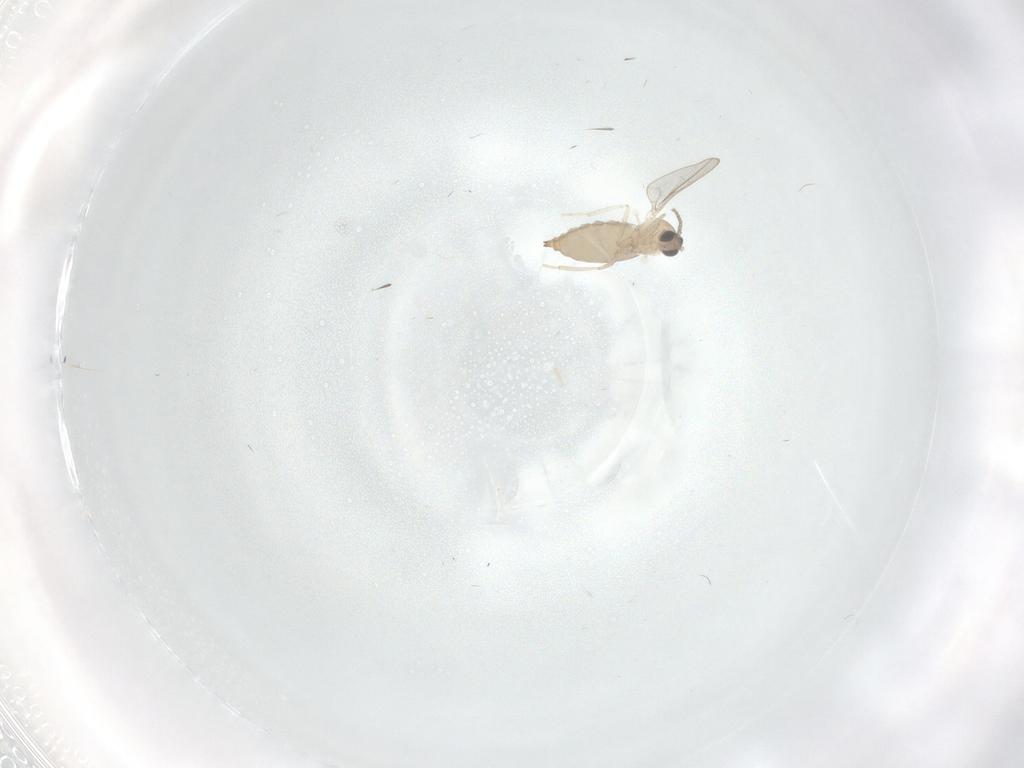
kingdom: Animalia
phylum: Arthropoda
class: Insecta
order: Diptera
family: Cecidomyiidae
